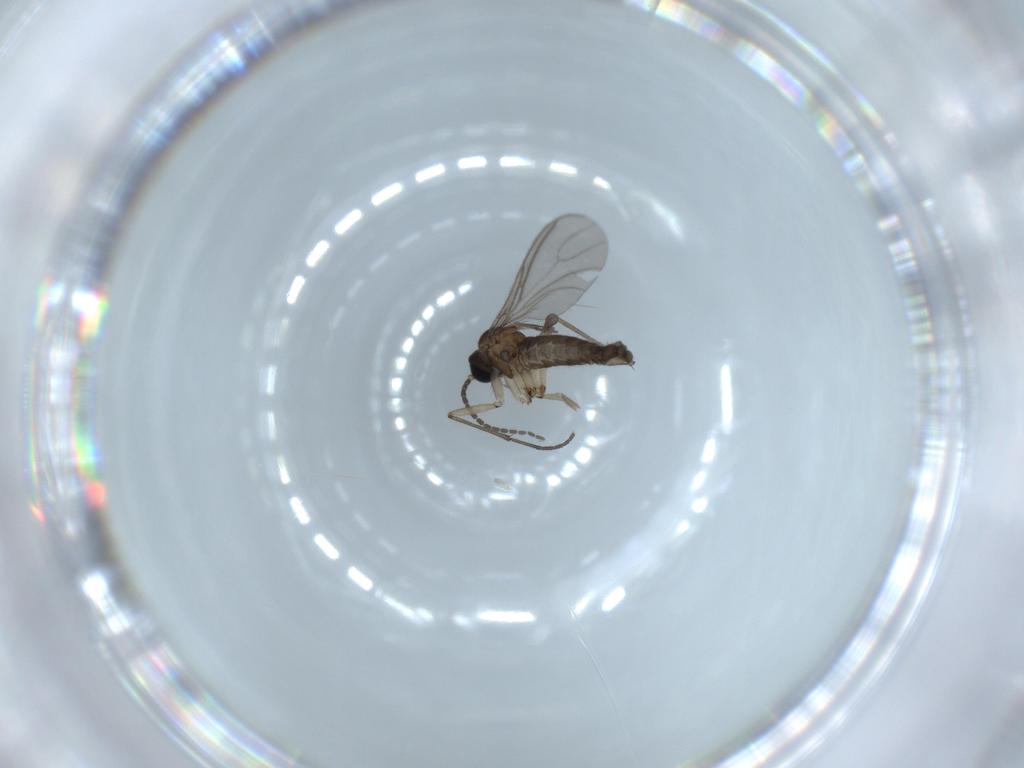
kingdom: Animalia
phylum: Arthropoda
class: Insecta
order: Diptera
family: Sciaridae
